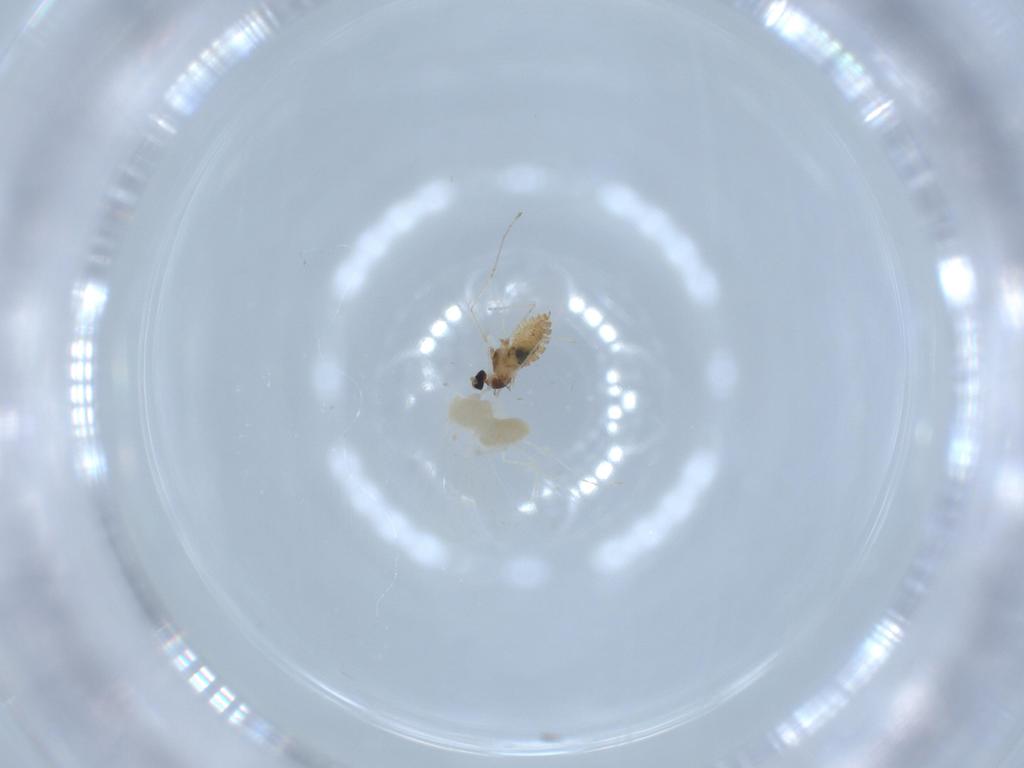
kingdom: Animalia
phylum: Arthropoda
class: Insecta
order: Diptera
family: Cecidomyiidae
